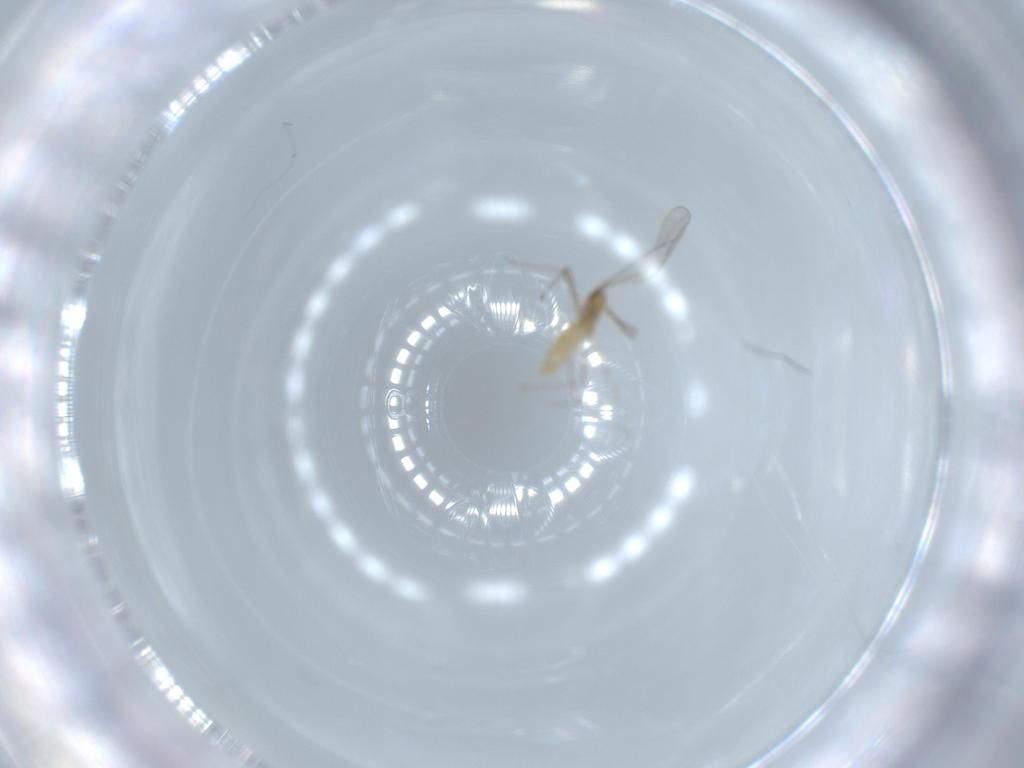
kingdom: Animalia
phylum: Arthropoda
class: Insecta
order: Diptera
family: Cecidomyiidae
